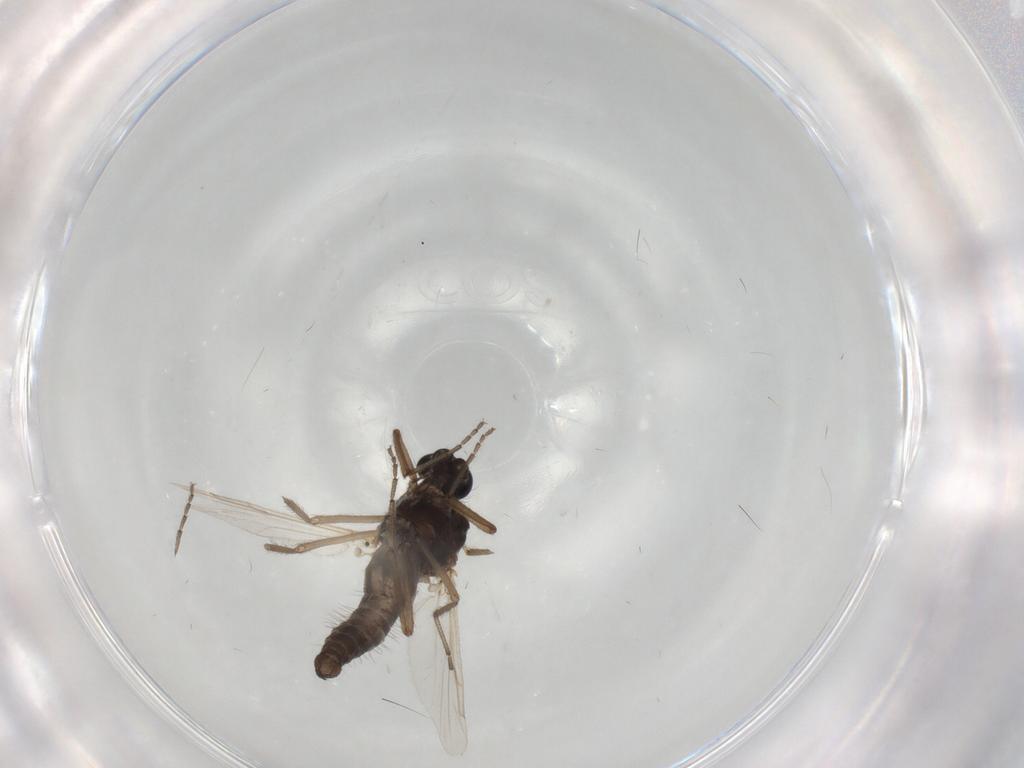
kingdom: Animalia
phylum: Arthropoda
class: Insecta
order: Diptera
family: Ceratopogonidae
